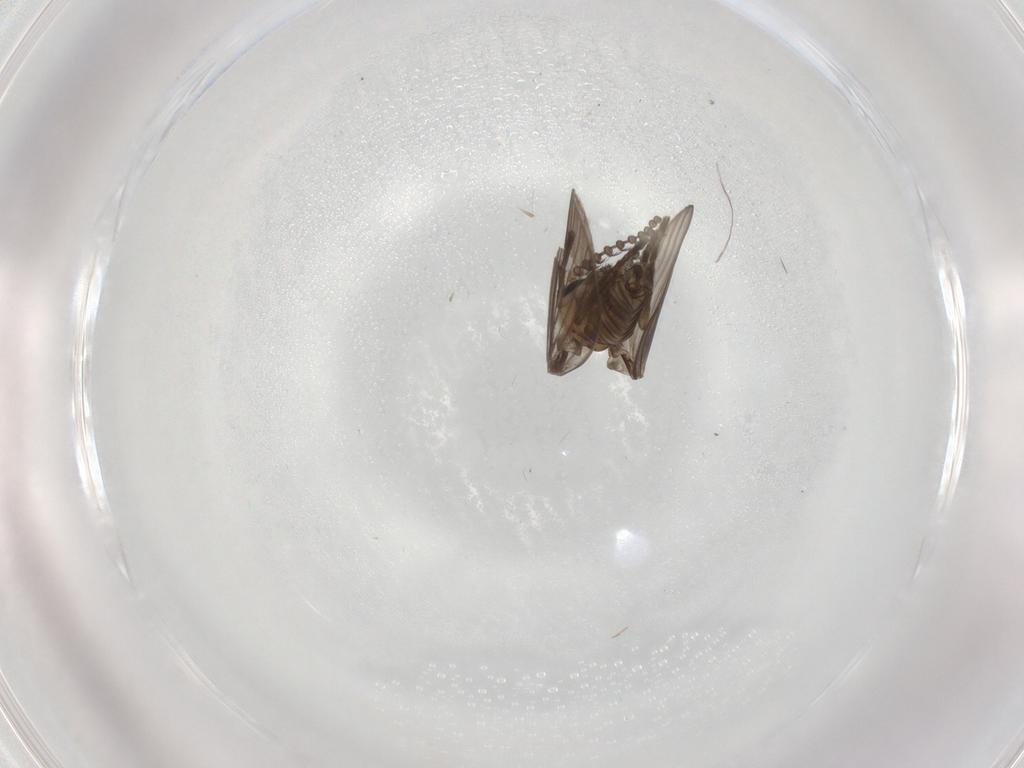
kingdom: Animalia
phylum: Arthropoda
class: Insecta
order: Diptera
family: Psychodidae
